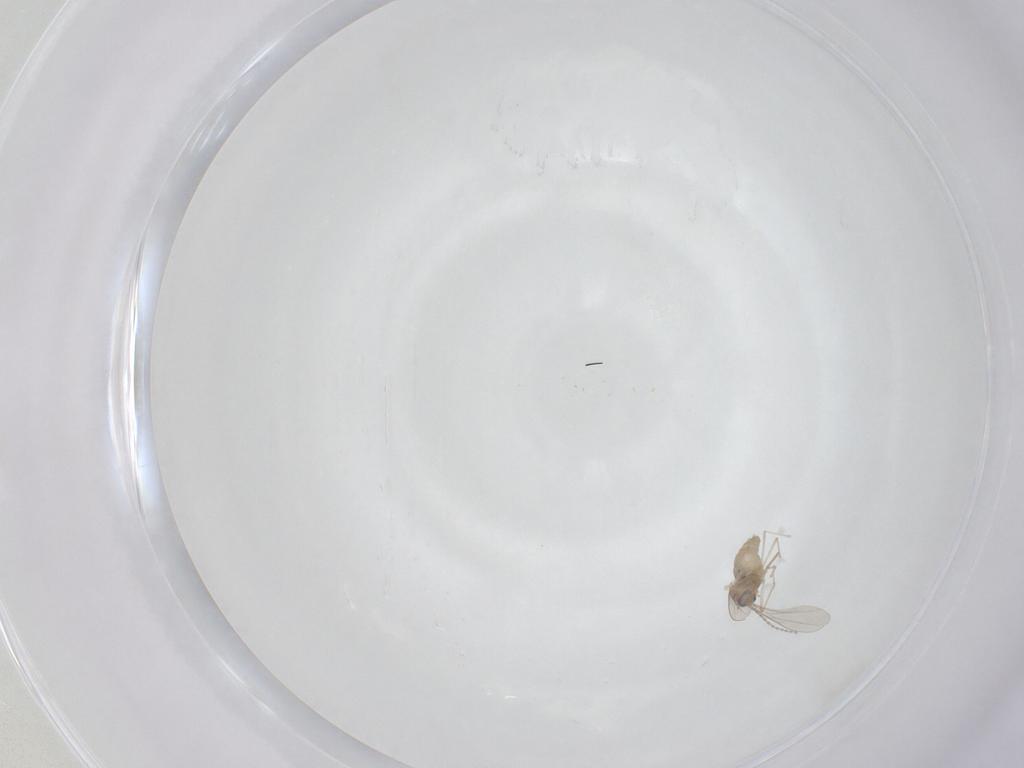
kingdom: Animalia
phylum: Arthropoda
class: Insecta
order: Diptera
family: Cecidomyiidae
